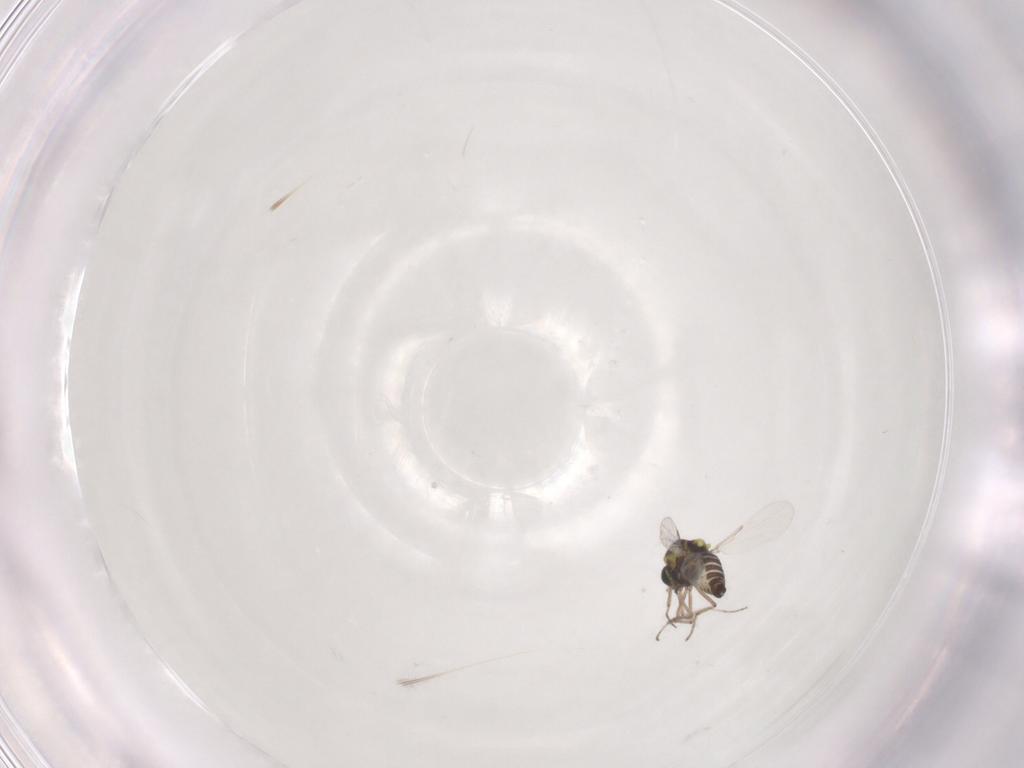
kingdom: Animalia
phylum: Arthropoda
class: Insecta
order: Diptera
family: Ceratopogonidae
